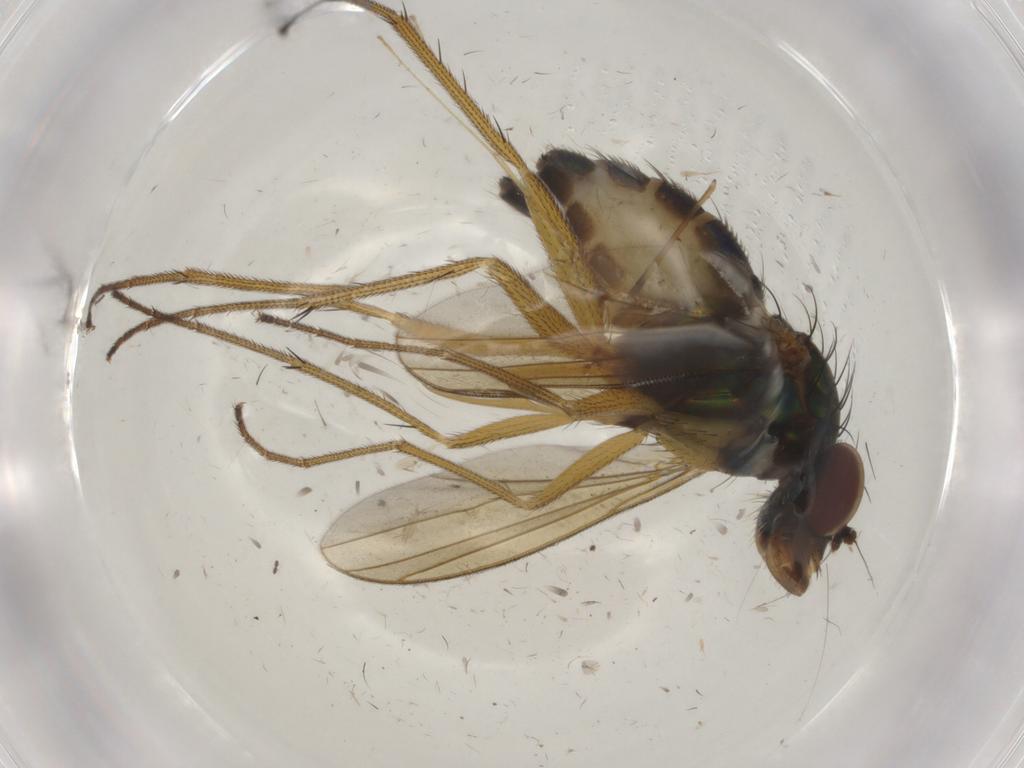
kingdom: Animalia
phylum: Arthropoda
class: Insecta
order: Diptera
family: Dolichopodidae
